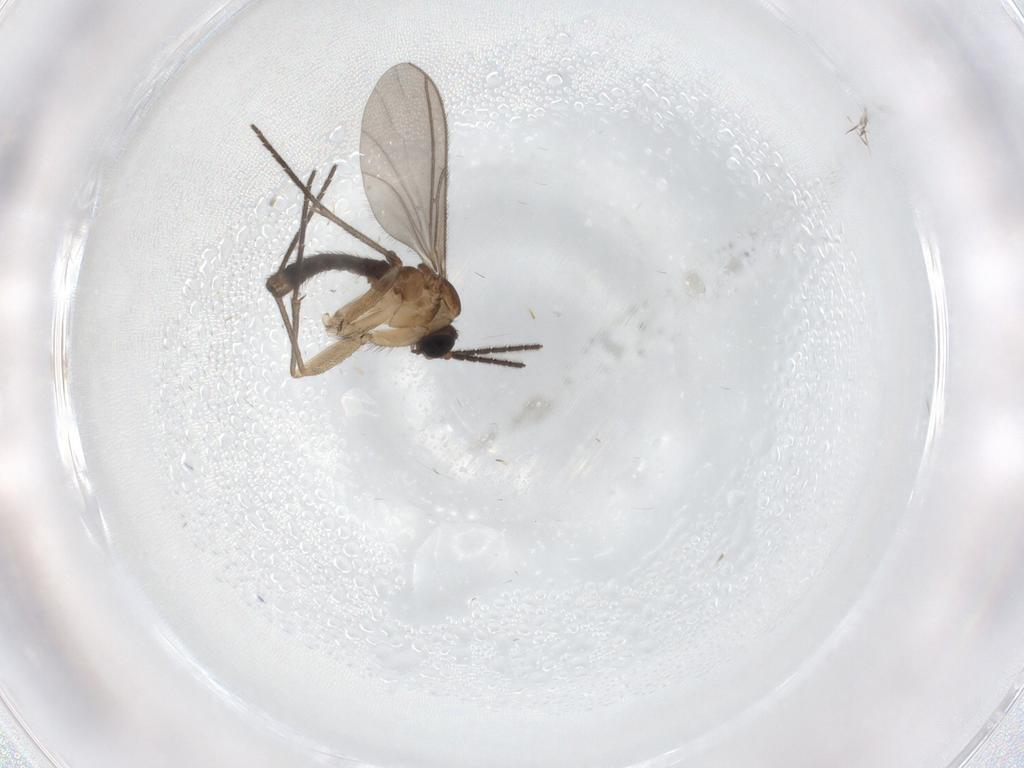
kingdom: Animalia
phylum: Arthropoda
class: Insecta
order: Diptera
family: Sciaridae
